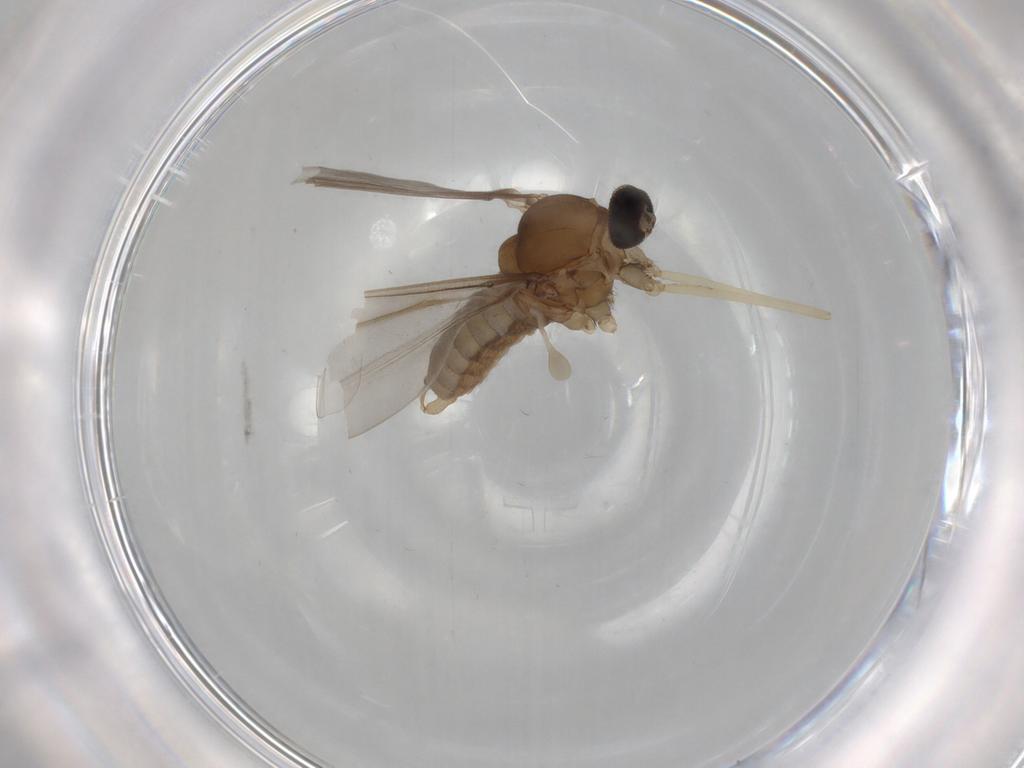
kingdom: Animalia
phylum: Arthropoda
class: Insecta
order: Diptera
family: Cecidomyiidae
